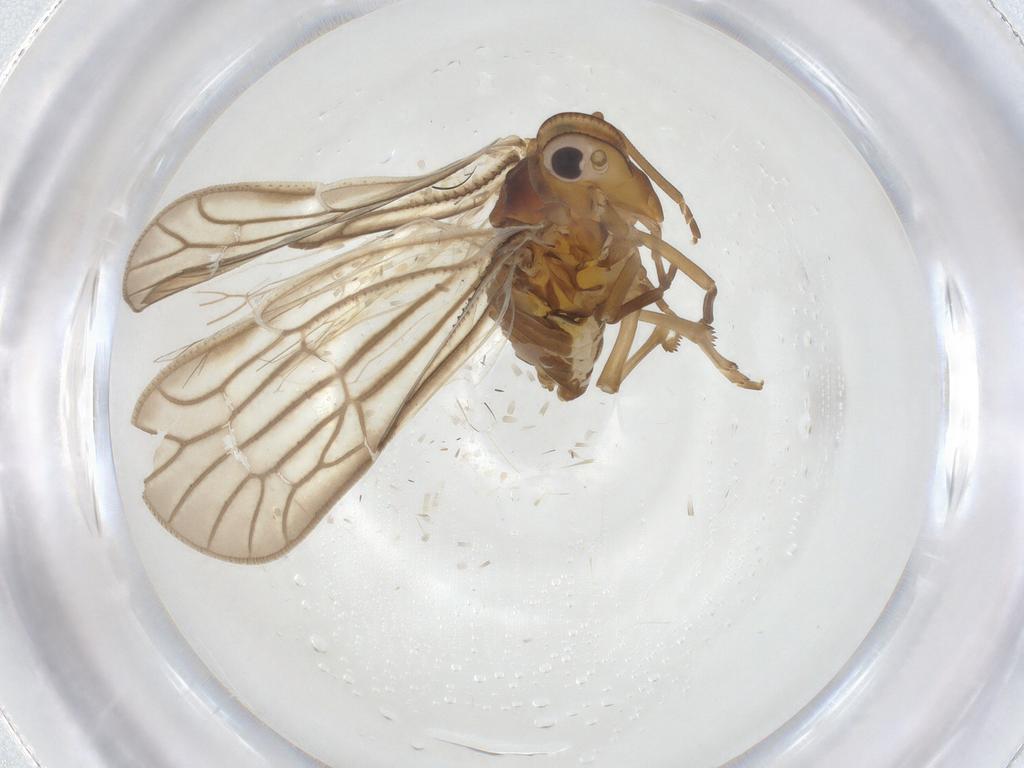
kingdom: Animalia
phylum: Arthropoda
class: Insecta
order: Hemiptera
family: Meenoplidae
